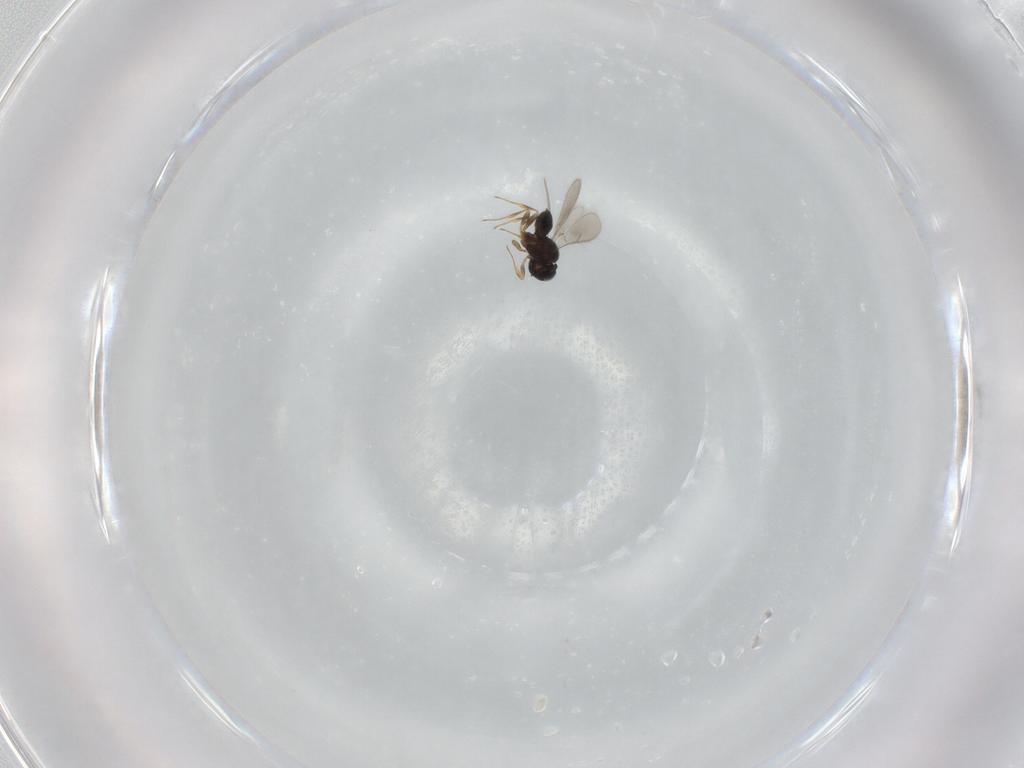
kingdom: Animalia
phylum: Arthropoda
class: Insecta
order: Hymenoptera
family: Scelionidae
